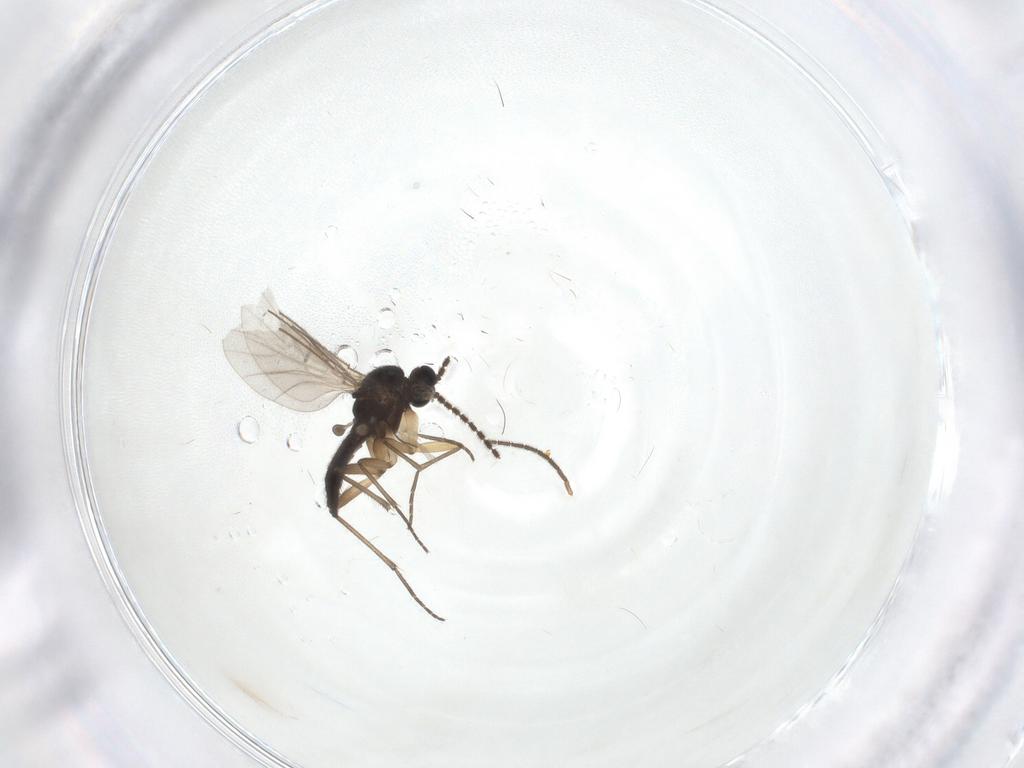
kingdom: Animalia
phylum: Arthropoda
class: Insecta
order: Diptera
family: Sciaridae
